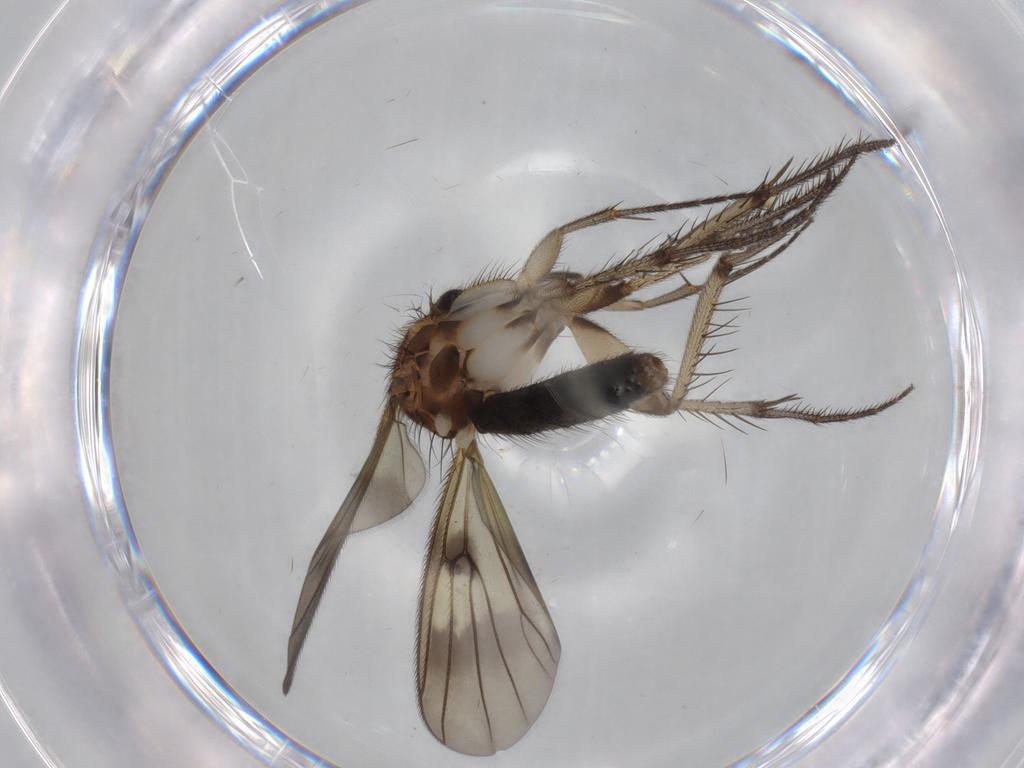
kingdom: Animalia
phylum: Arthropoda
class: Insecta
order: Diptera
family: Mycetophilidae
